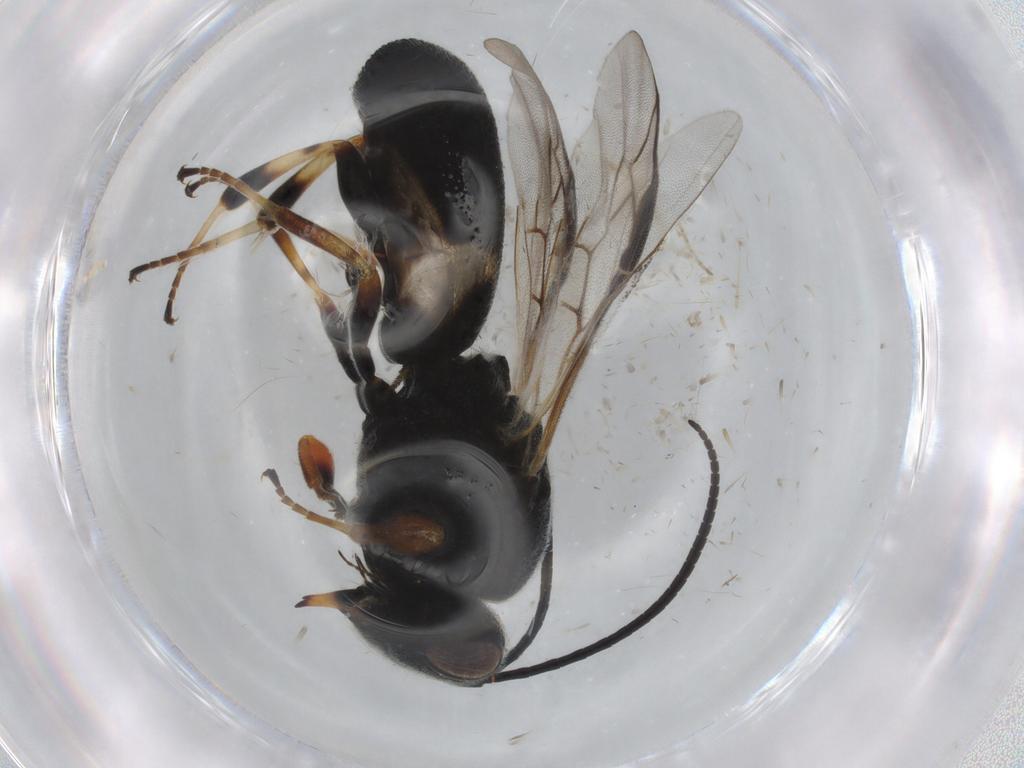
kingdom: Animalia
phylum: Arthropoda
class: Insecta
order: Hymenoptera
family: Braconidae
